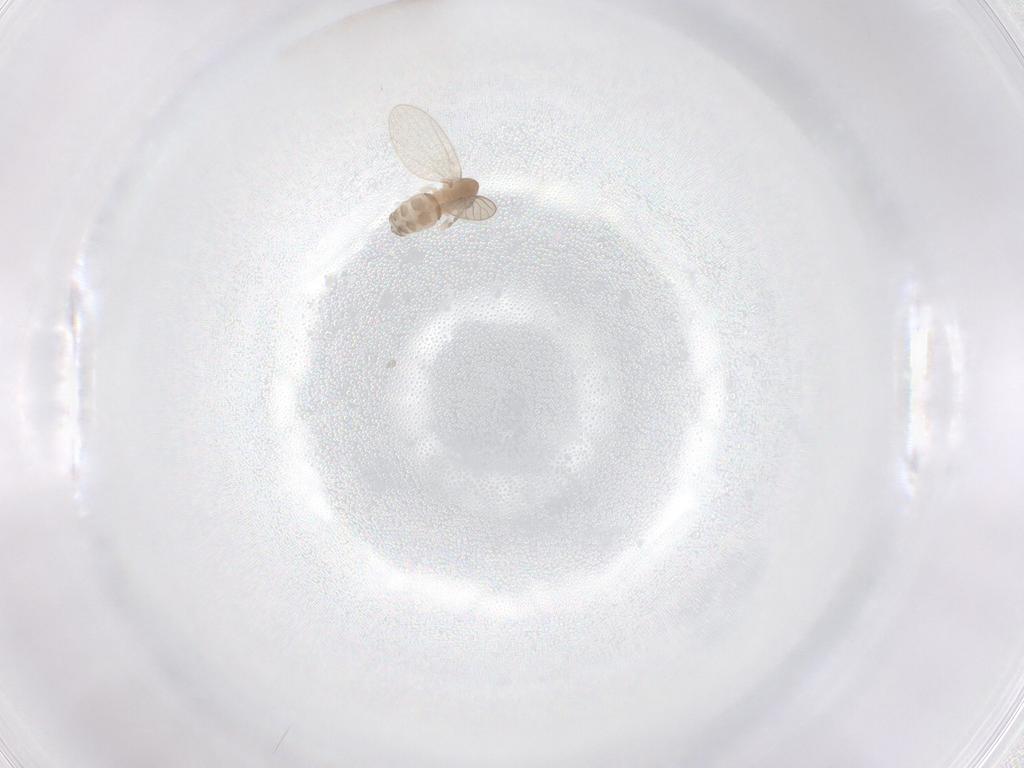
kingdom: Animalia
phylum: Arthropoda
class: Insecta
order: Diptera
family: Psychodidae
